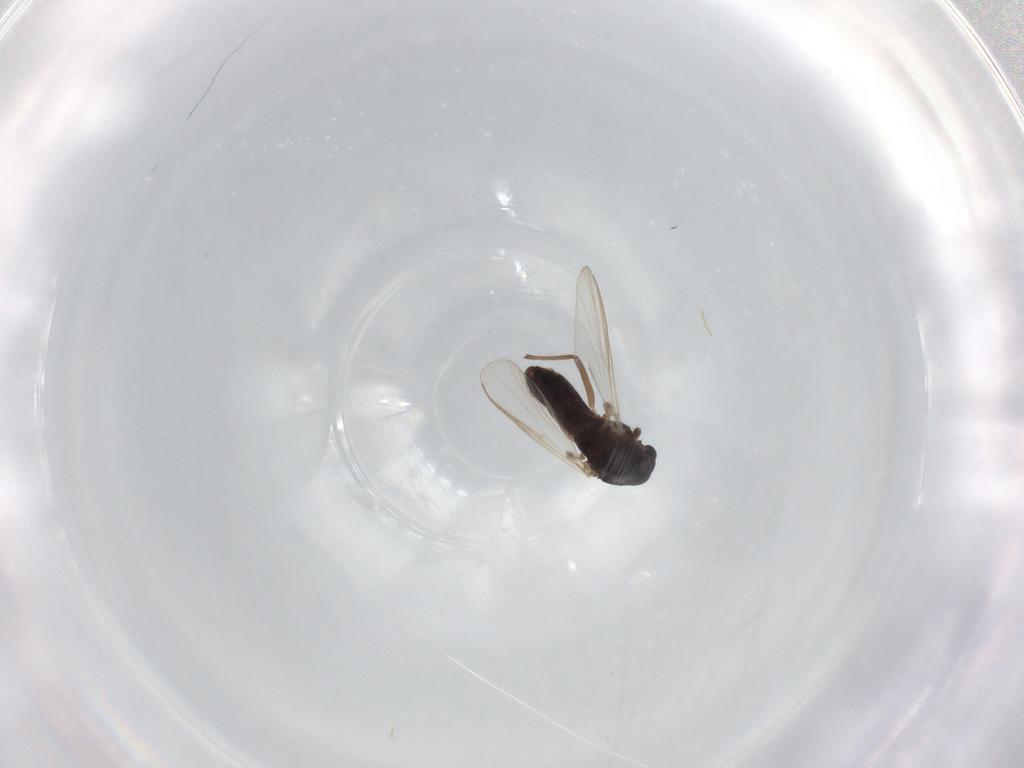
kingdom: Animalia
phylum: Arthropoda
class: Insecta
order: Diptera
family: Chironomidae
